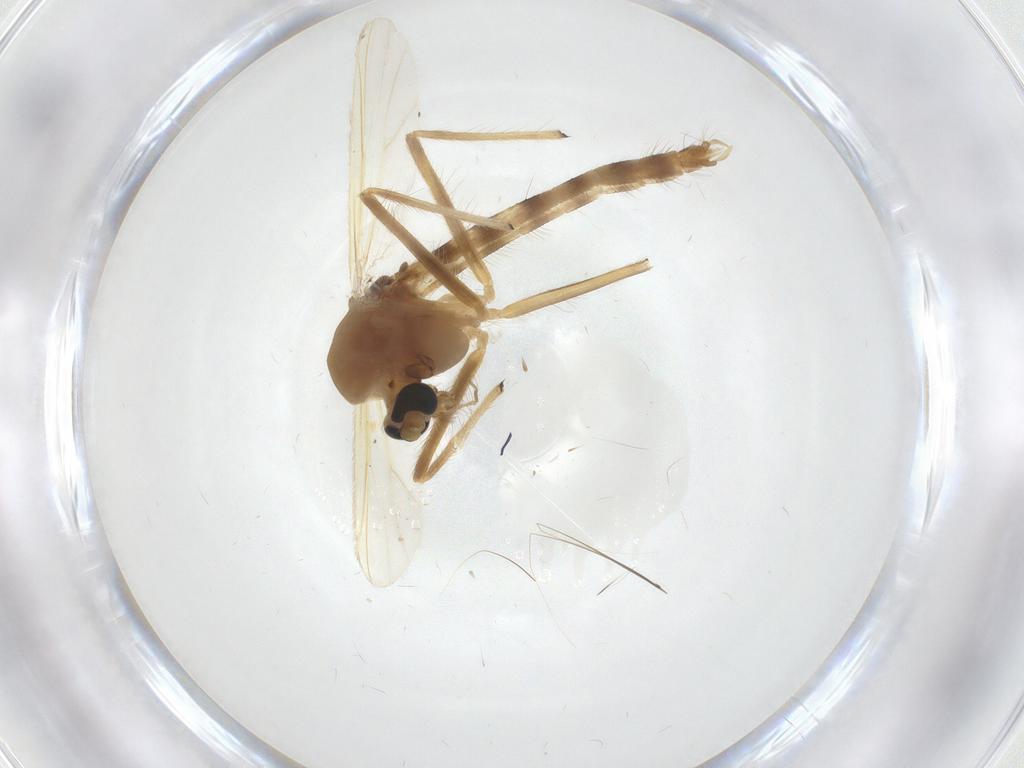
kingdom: Animalia
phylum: Arthropoda
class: Insecta
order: Diptera
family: Chironomidae
